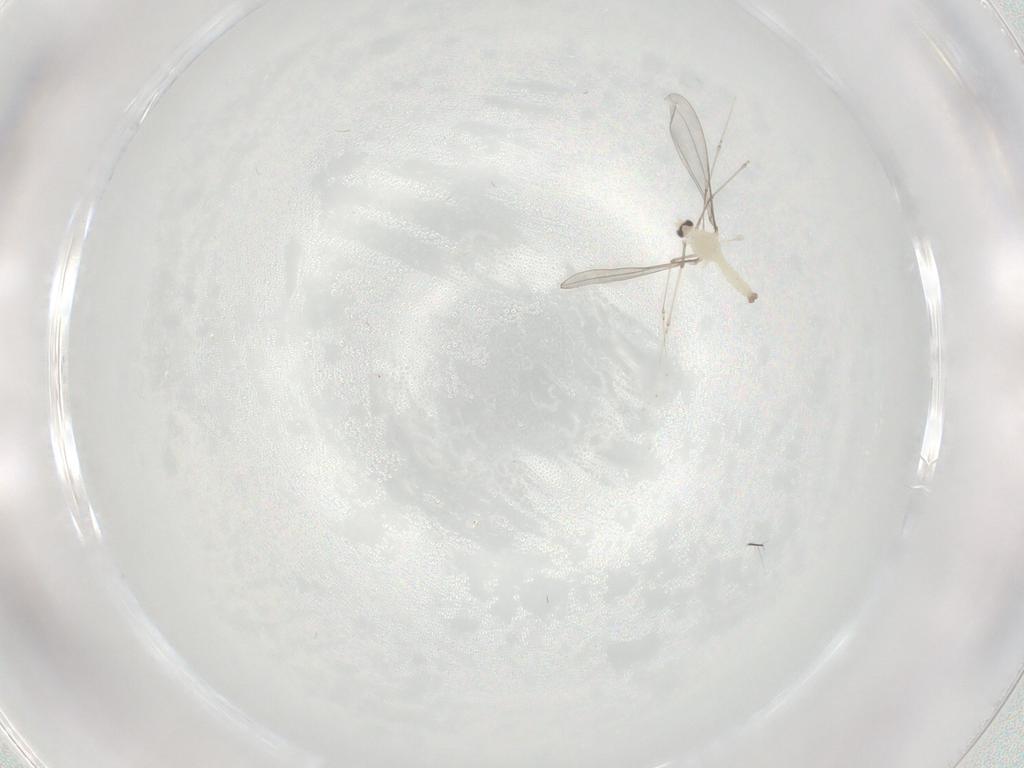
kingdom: Animalia
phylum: Arthropoda
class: Insecta
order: Diptera
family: Cecidomyiidae
